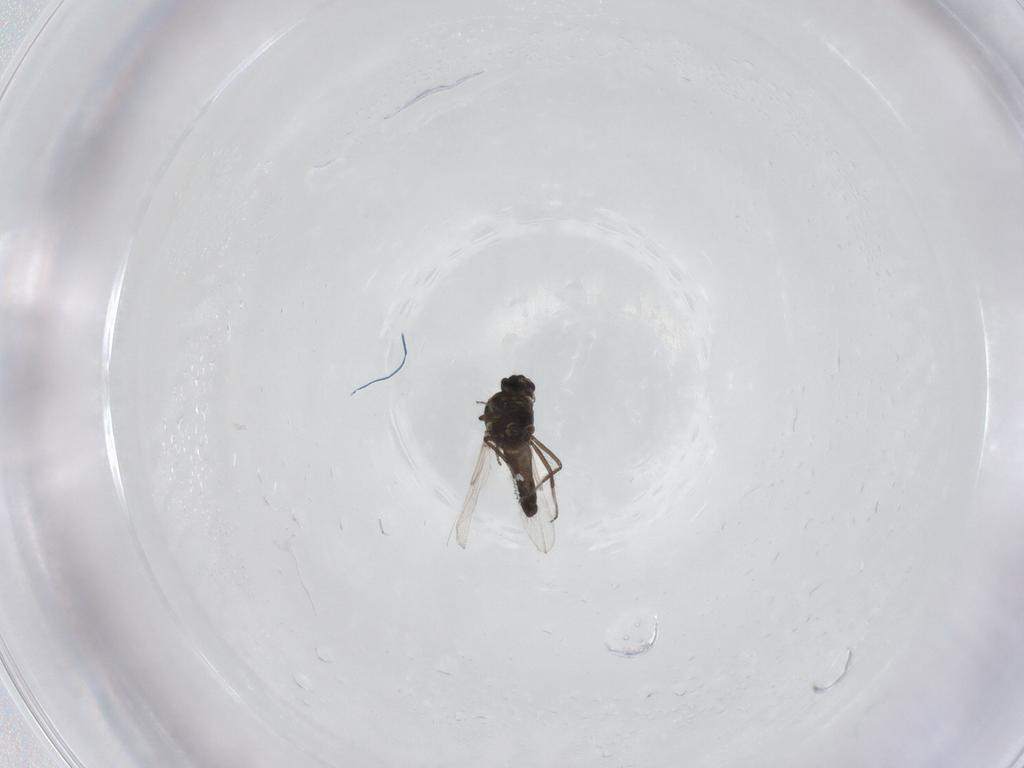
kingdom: Animalia
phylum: Arthropoda
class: Insecta
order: Diptera
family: Ceratopogonidae
